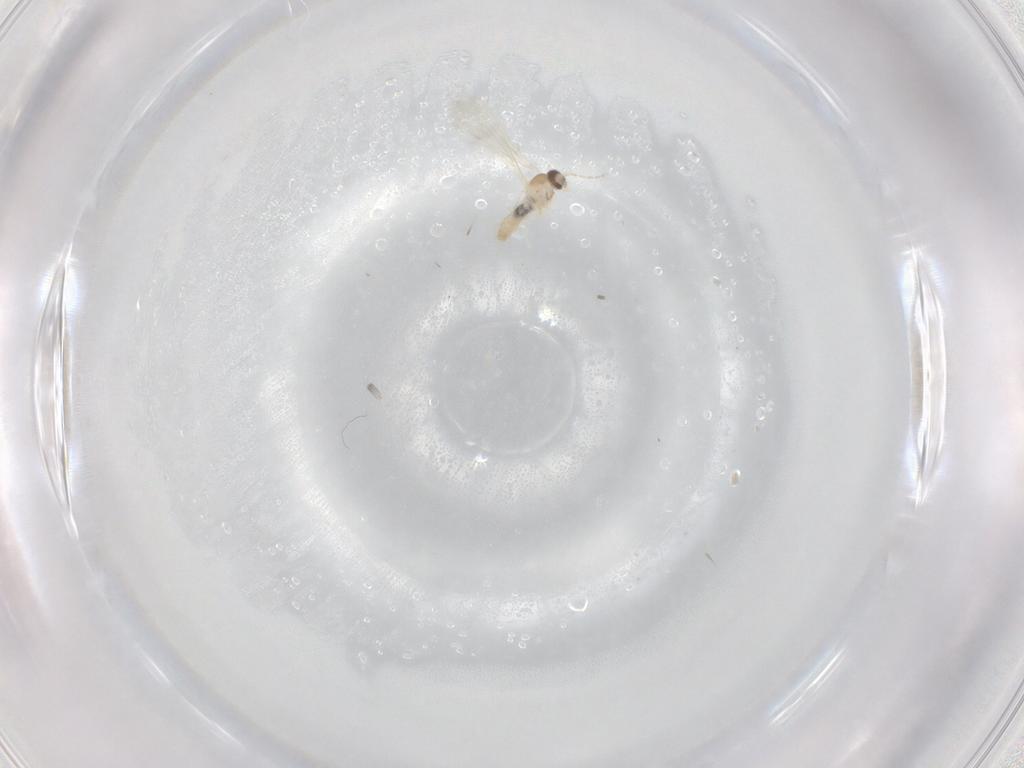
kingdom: Animalia
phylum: Arthropoda
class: Insecta
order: Diptera
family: Cecidomyiidae
